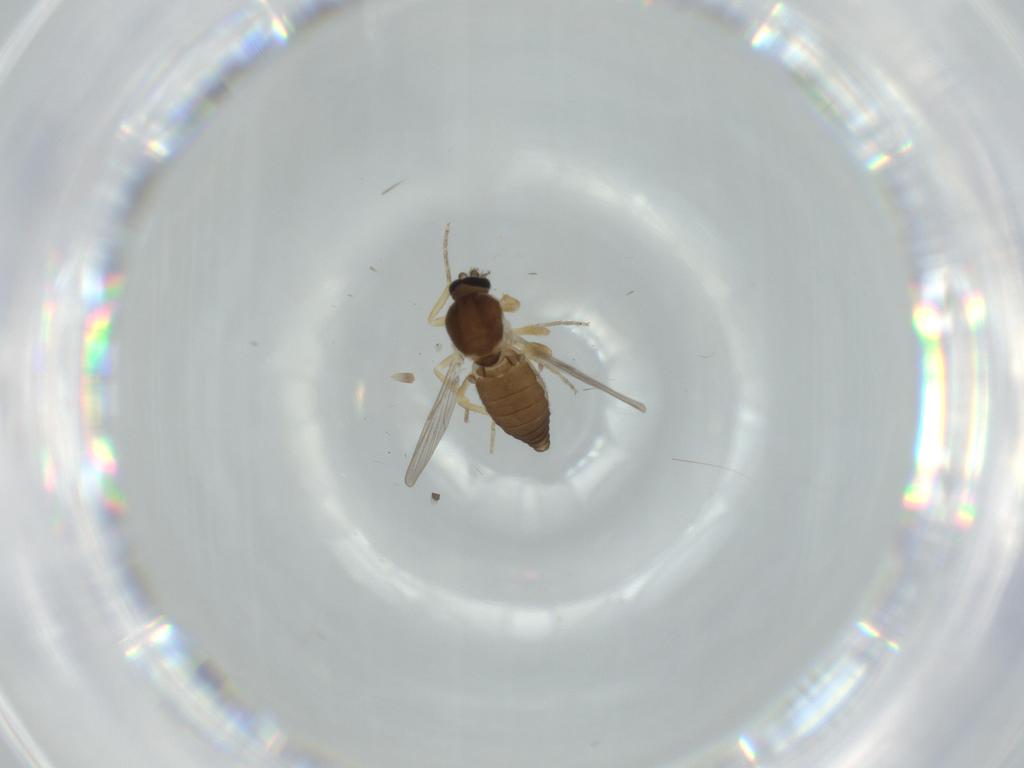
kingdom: Animalia
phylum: Arthropoda
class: Insecta
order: Diptera
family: Ceratopogonidae
